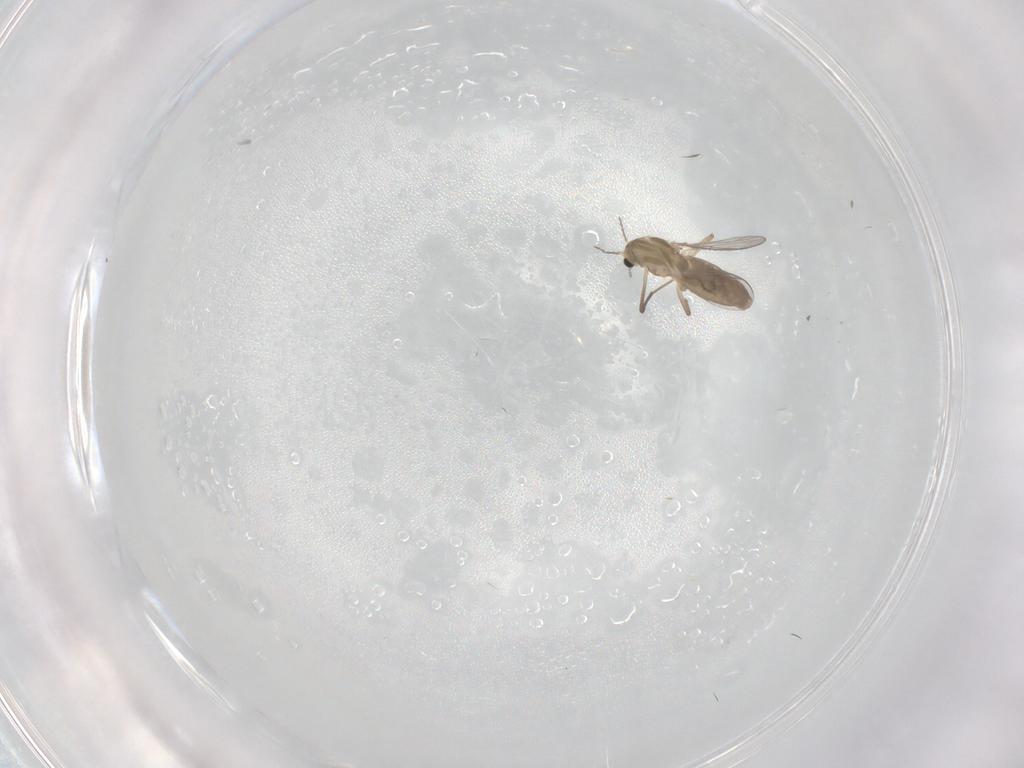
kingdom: Animalia
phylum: Arthropoda
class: Insecta
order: Diptera
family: Chironomidae
